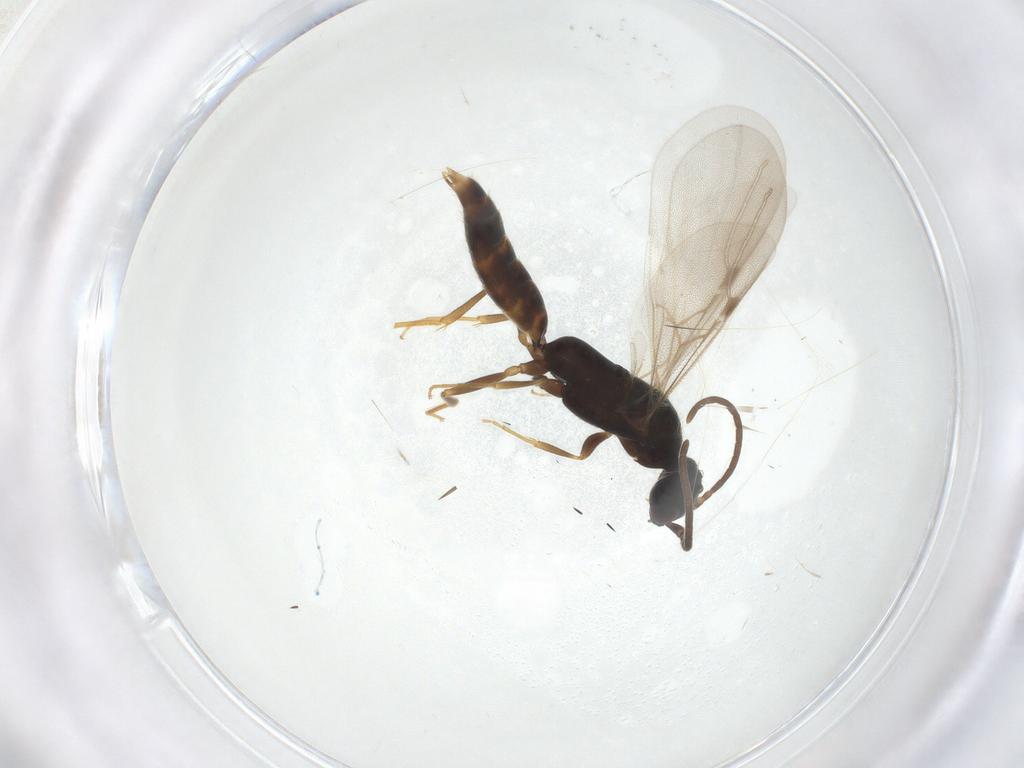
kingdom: Animalia
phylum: Arthropoda
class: Insecta
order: Hymenoptera
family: Bethylidae
